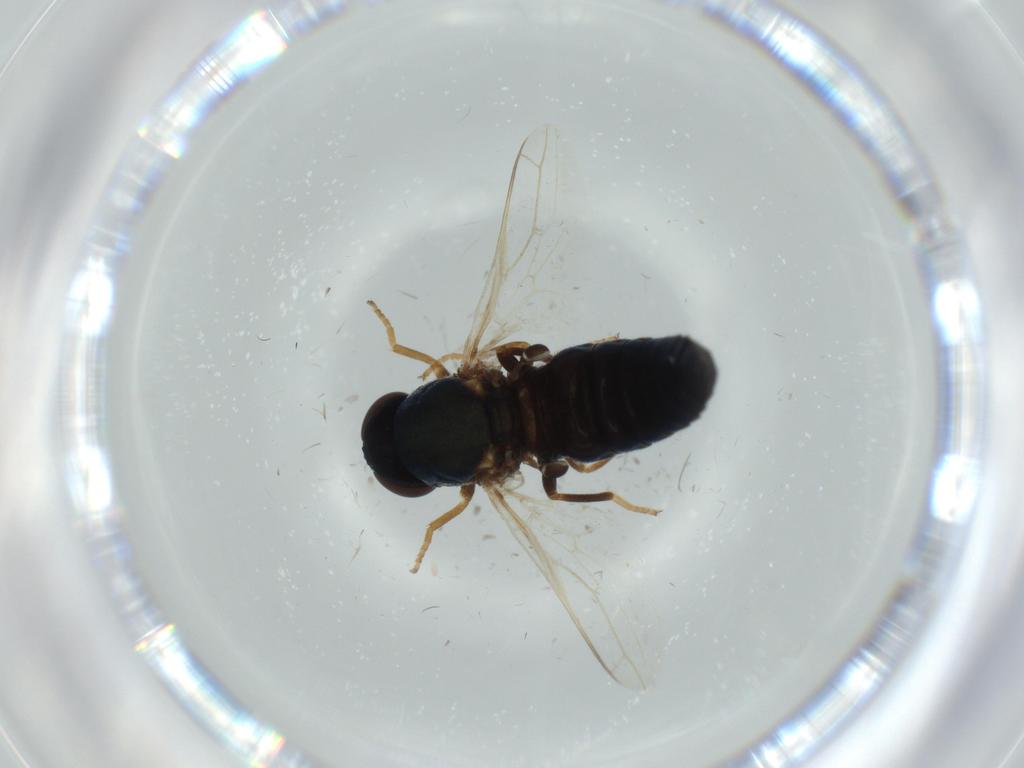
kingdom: Animalia
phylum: Arthropoda
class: Insecta
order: Diptera
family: Cecidomyiidae
